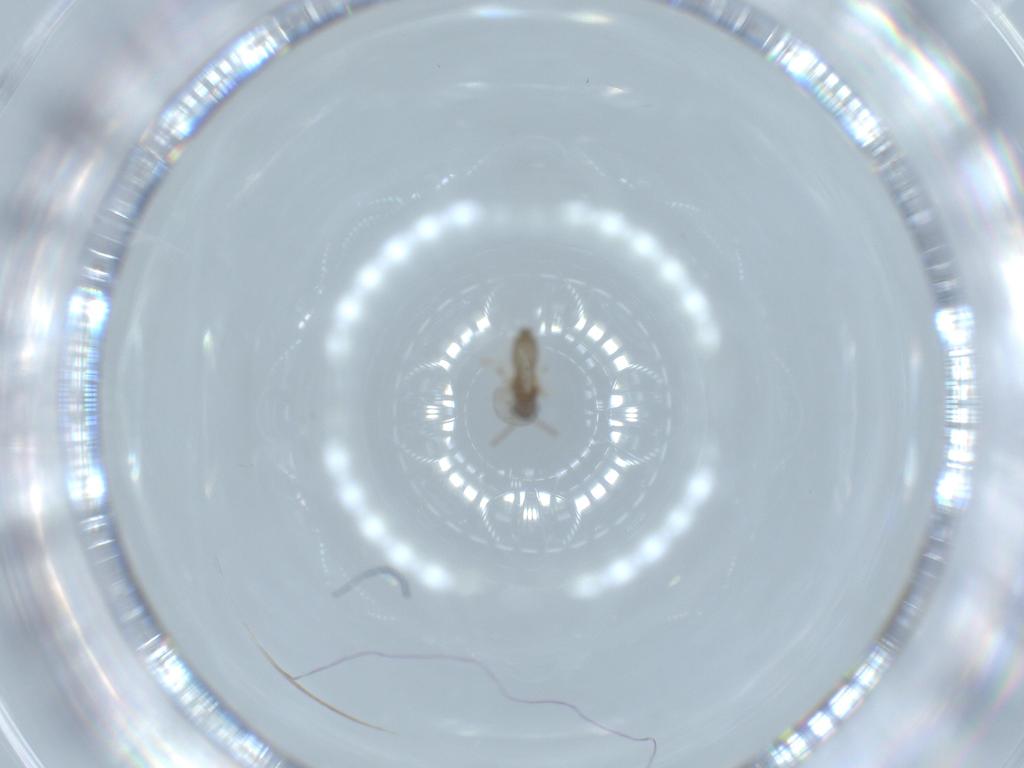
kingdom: Animalia
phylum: Arthropoda
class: Insecta
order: Diptera
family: Cecidomyiidae
